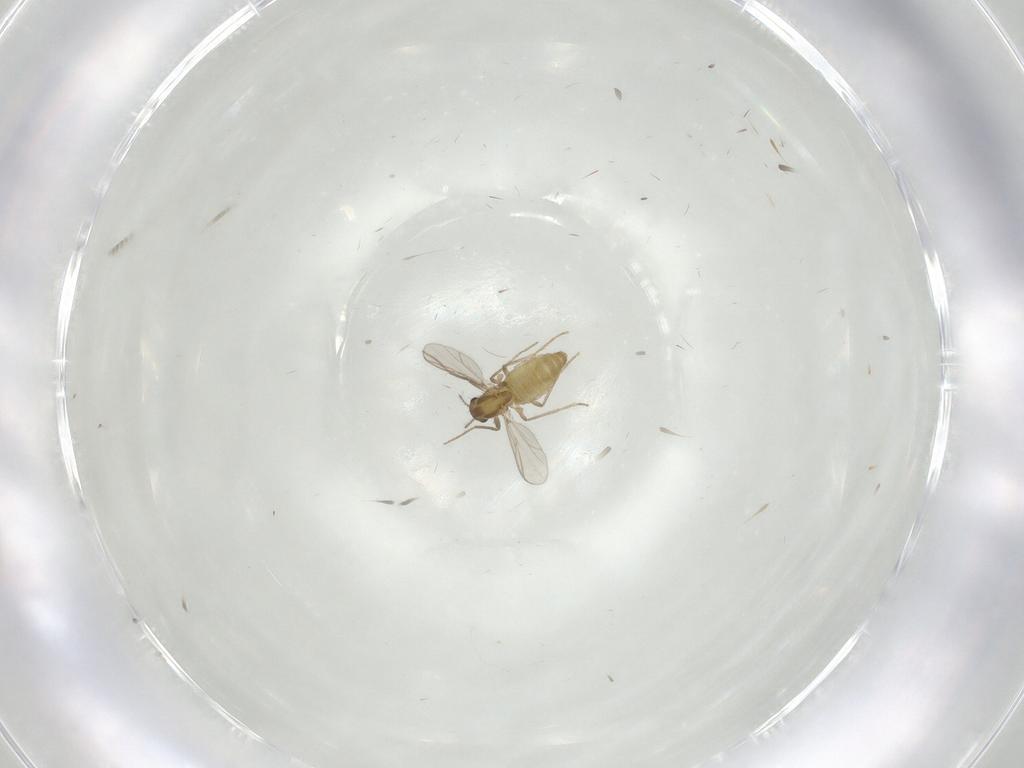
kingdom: Animalia
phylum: Arthropoda
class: Insecta
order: Diptera
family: Chironomidae
